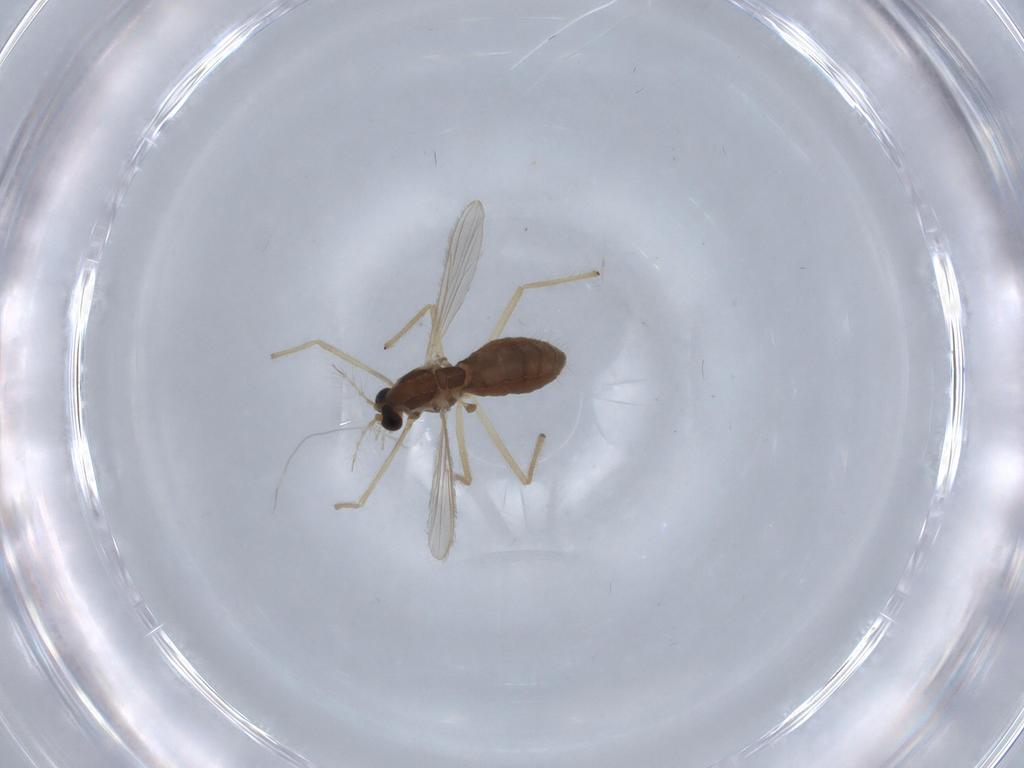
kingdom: Animalia
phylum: Arthropoda
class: Insecta
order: Diptera
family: Chironomidae
